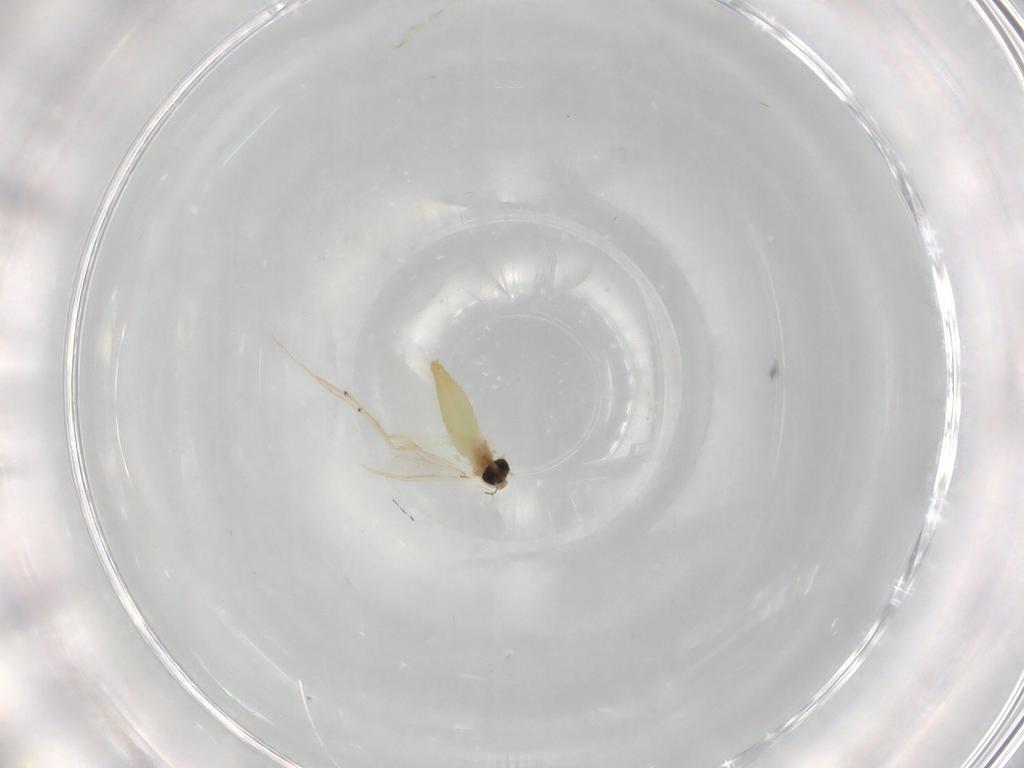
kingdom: Animalia
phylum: Arthropoda
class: Insecta
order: Diptera
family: Chironomidae
